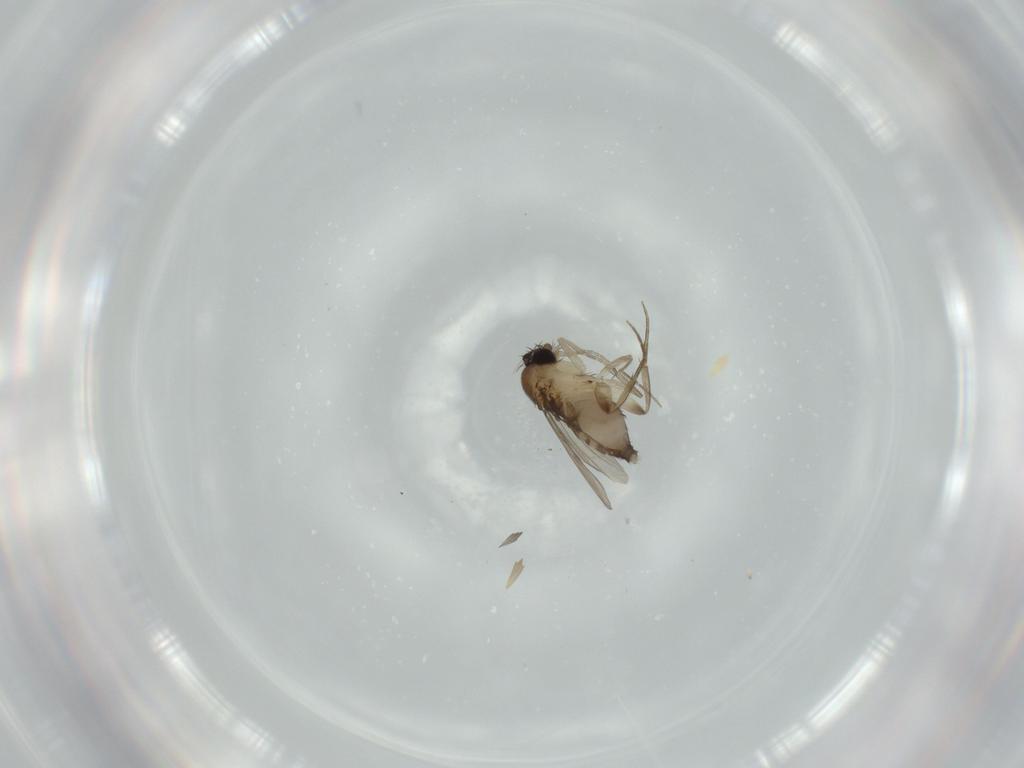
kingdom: Animalia
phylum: Arthropoda
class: Insecta
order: Diptera
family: Phoridae
